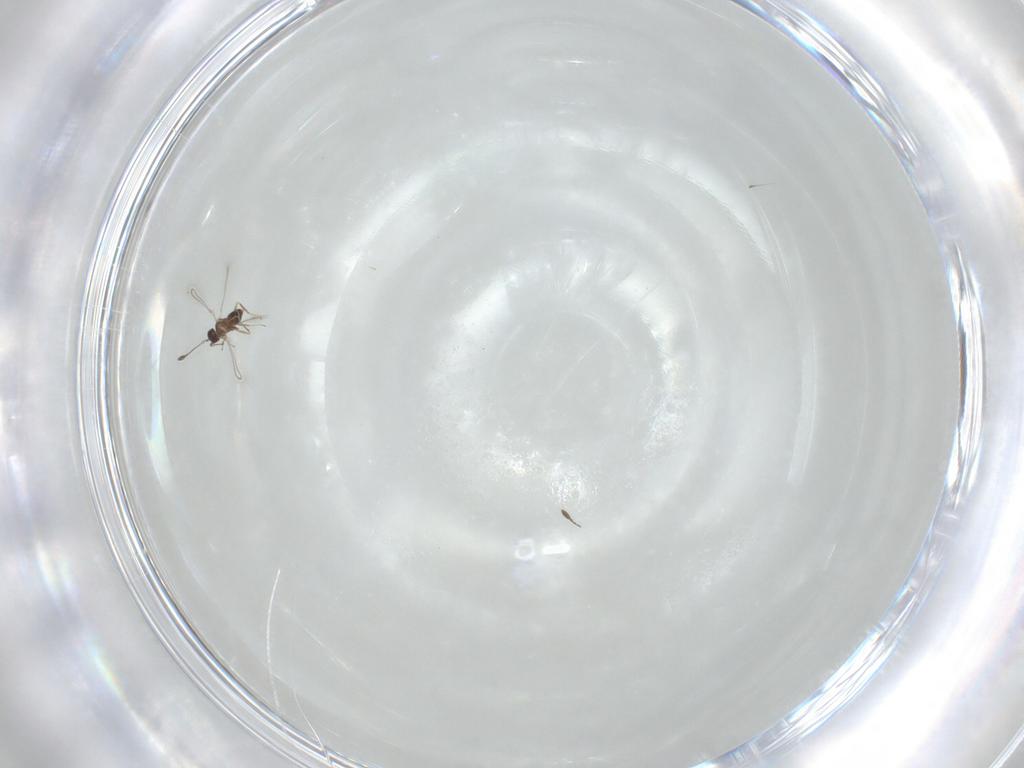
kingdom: Animalia
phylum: Arthropoda
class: Insecta
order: Hymenoptera
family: Mymaridae
